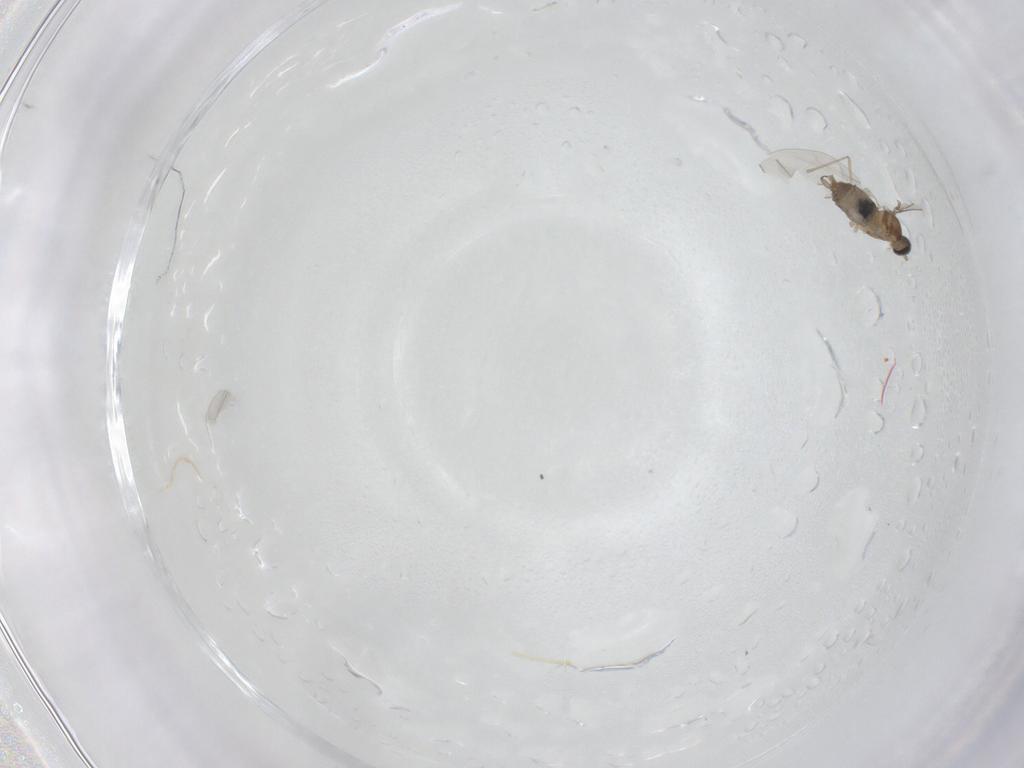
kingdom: Animalia
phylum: Arthropoda
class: Insecta
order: Diptera
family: Cecidomyiidae
